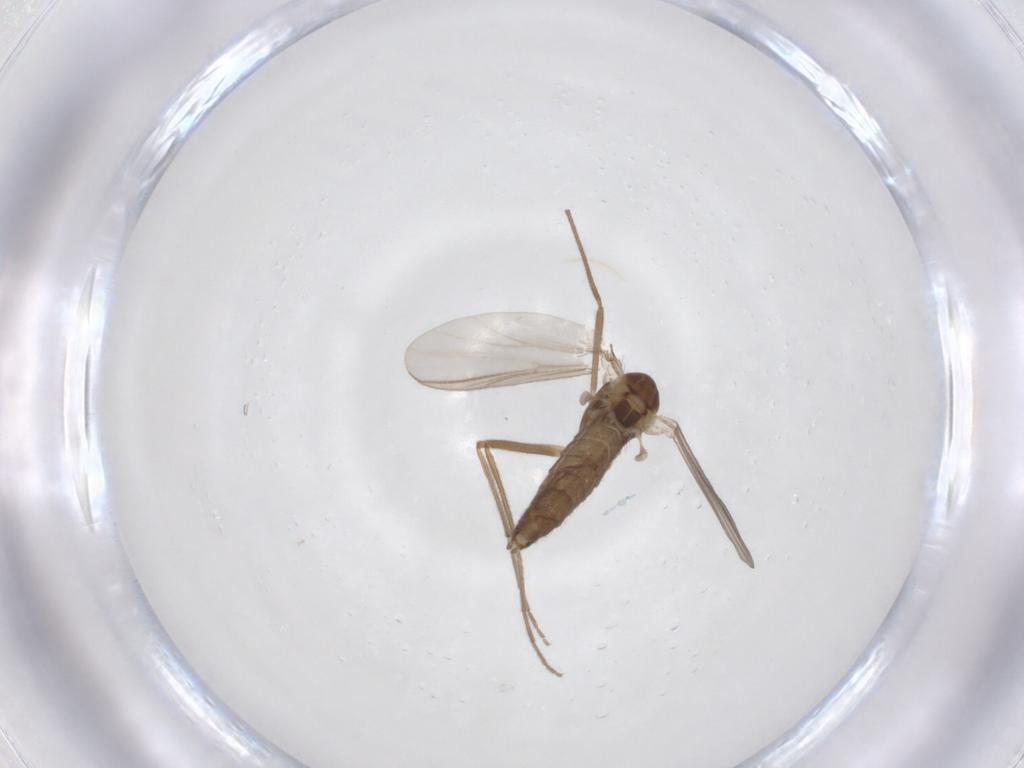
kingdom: Animalia
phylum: Arthropoda
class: Insecta
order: Diptera
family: Chironomidae
